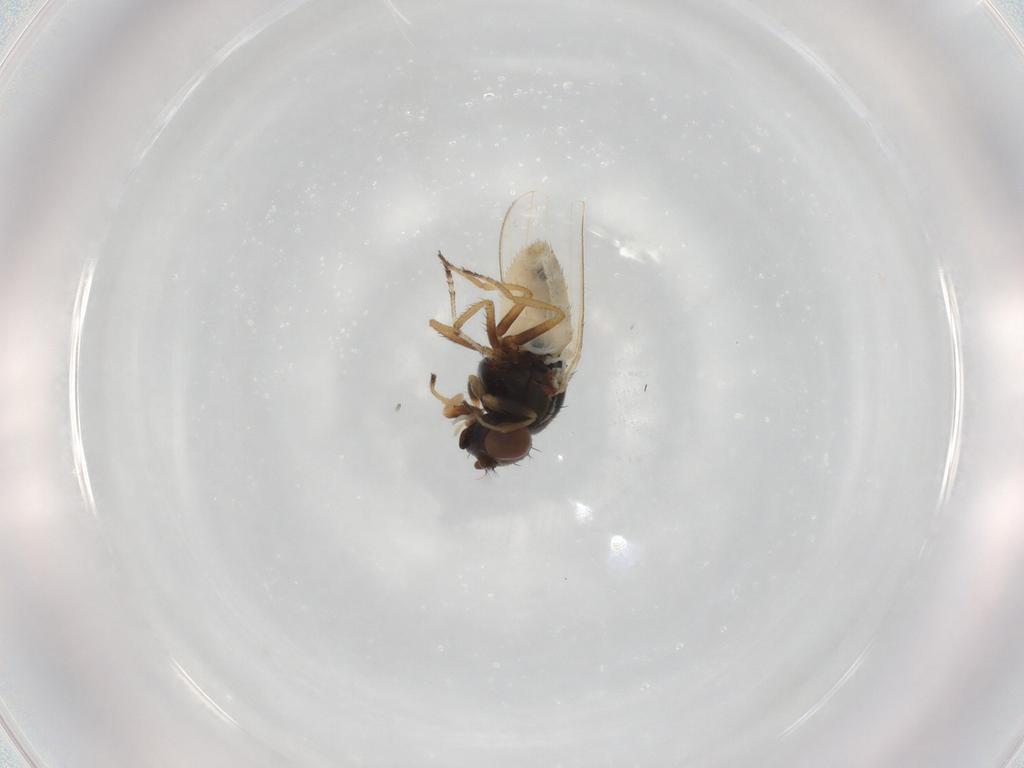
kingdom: Animalia
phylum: Arthropoda
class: Insecta
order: Diptera
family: Ephydridae
